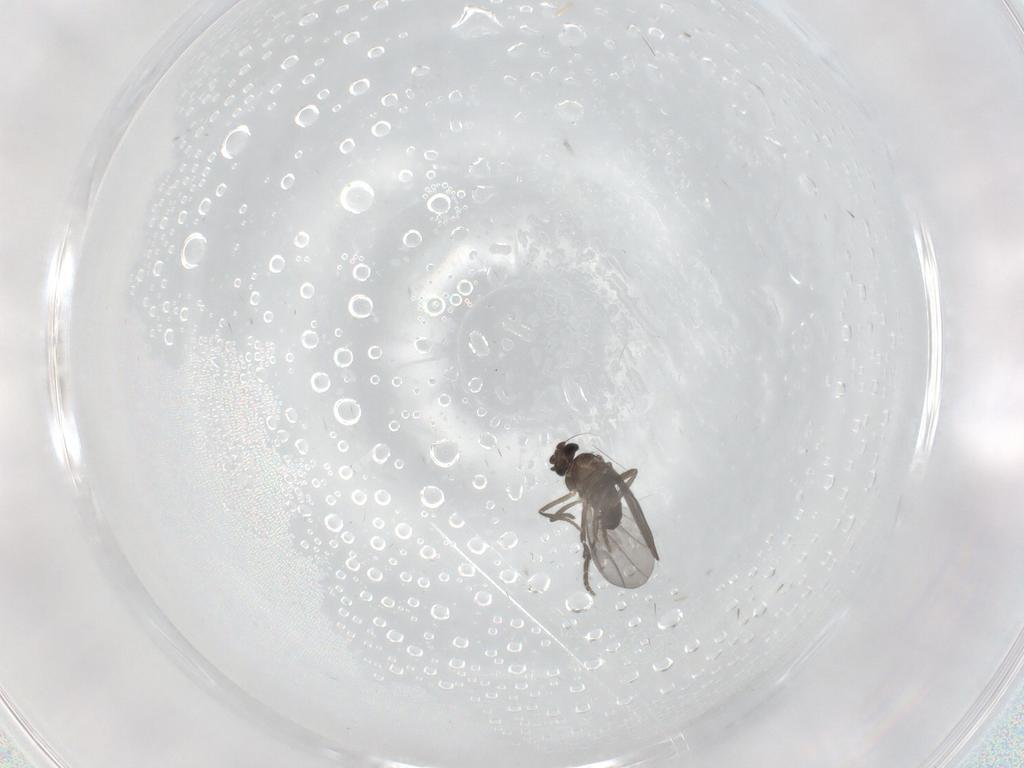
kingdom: Animalia
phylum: Arthropoda
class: Insecta
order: Diptera
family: Phoridae
